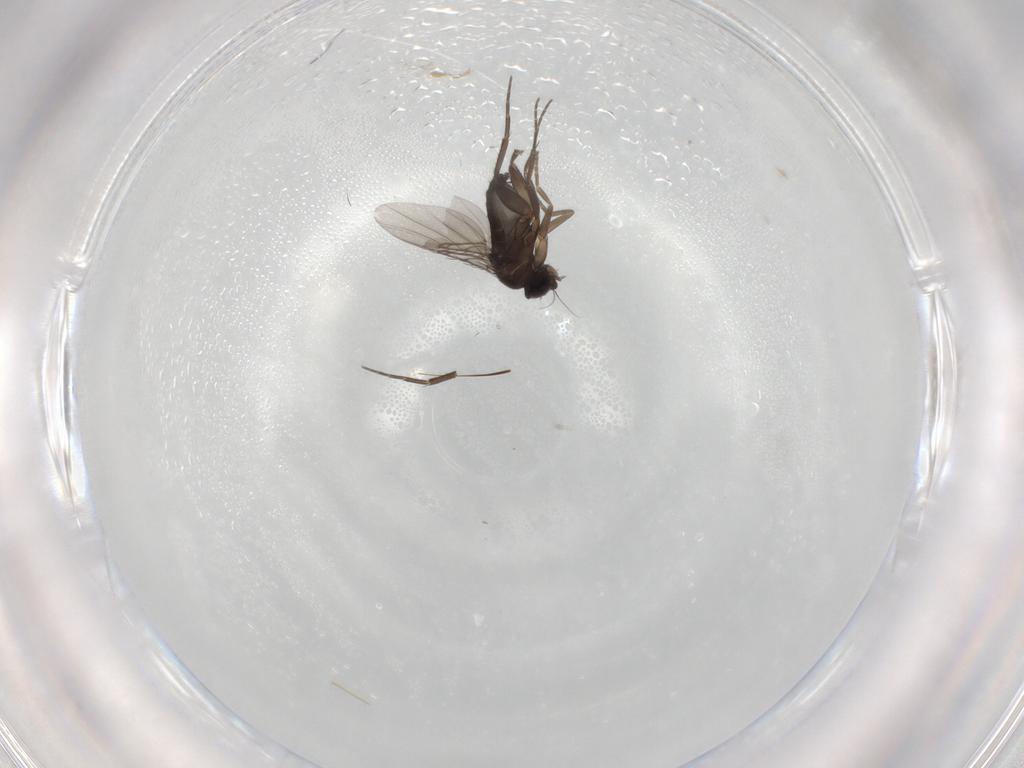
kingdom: Animalia
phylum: Arthropoda
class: Insecta
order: Diptera
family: Phoridae
